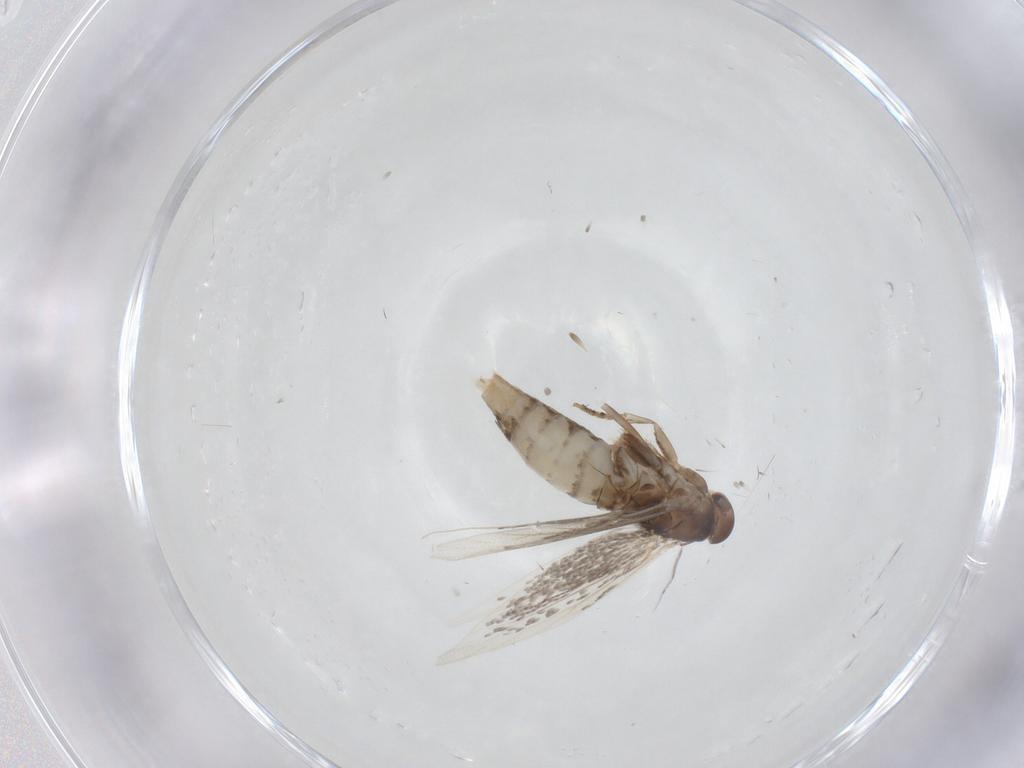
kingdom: Animalia
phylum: Arthropoda
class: Insecta
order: Lepidoptera
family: Elachistidae
